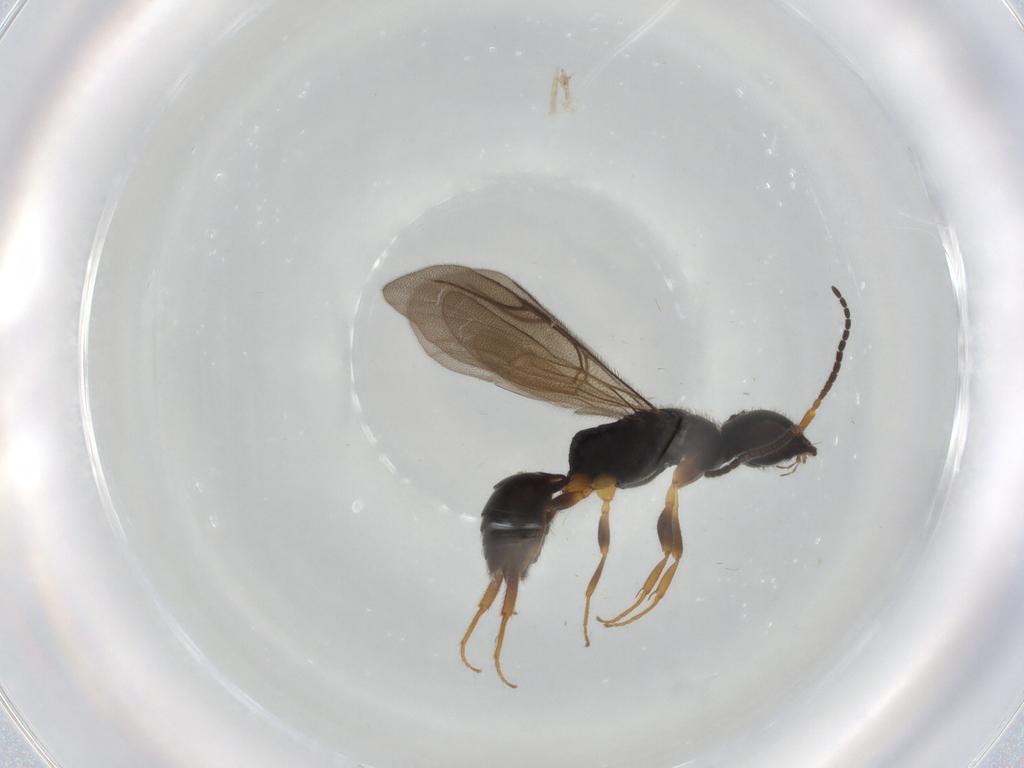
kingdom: Animalia
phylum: Arthropoda
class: Insecta
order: Hymenoptera
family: Bethylidae
